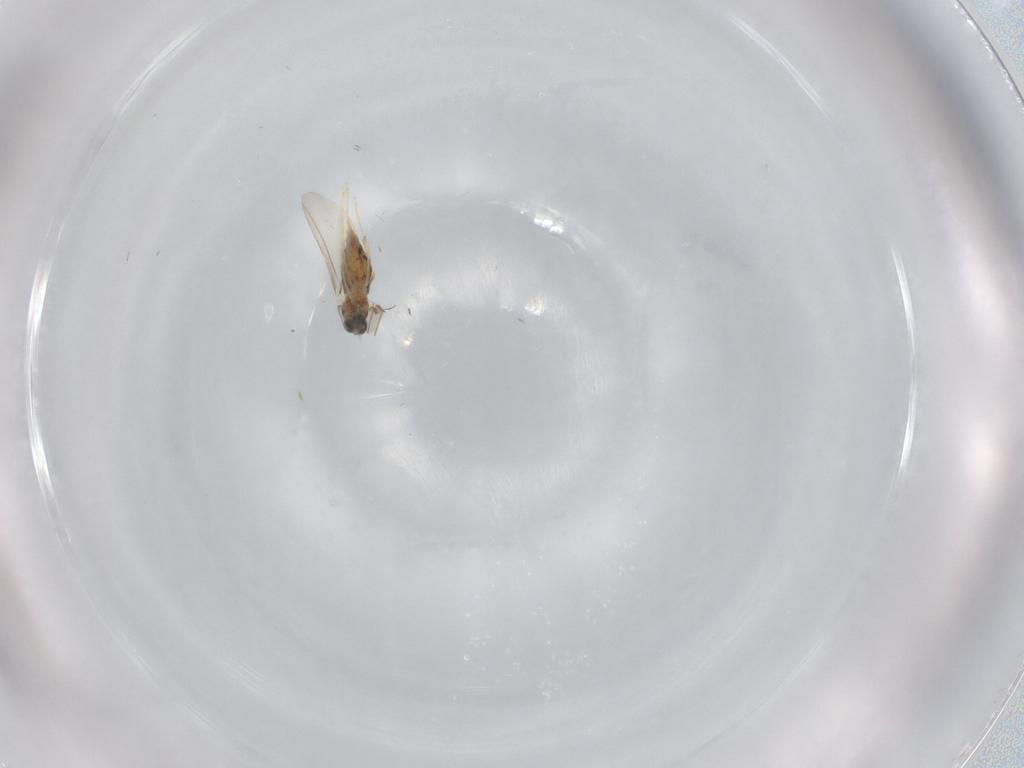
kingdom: Animalia
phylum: Arthropoda
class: Insecta
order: Diptera
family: Cecidomyiidae
